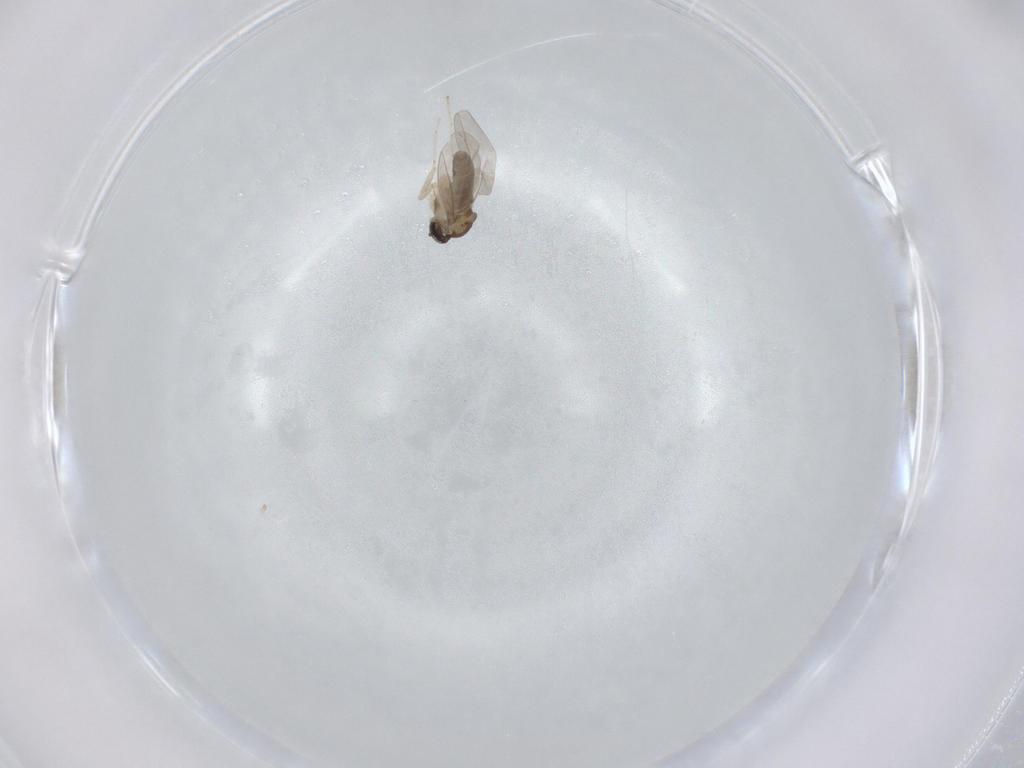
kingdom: Animalia
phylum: Arthropoda
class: Insecta
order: Diptera
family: Cecidomyiidae
